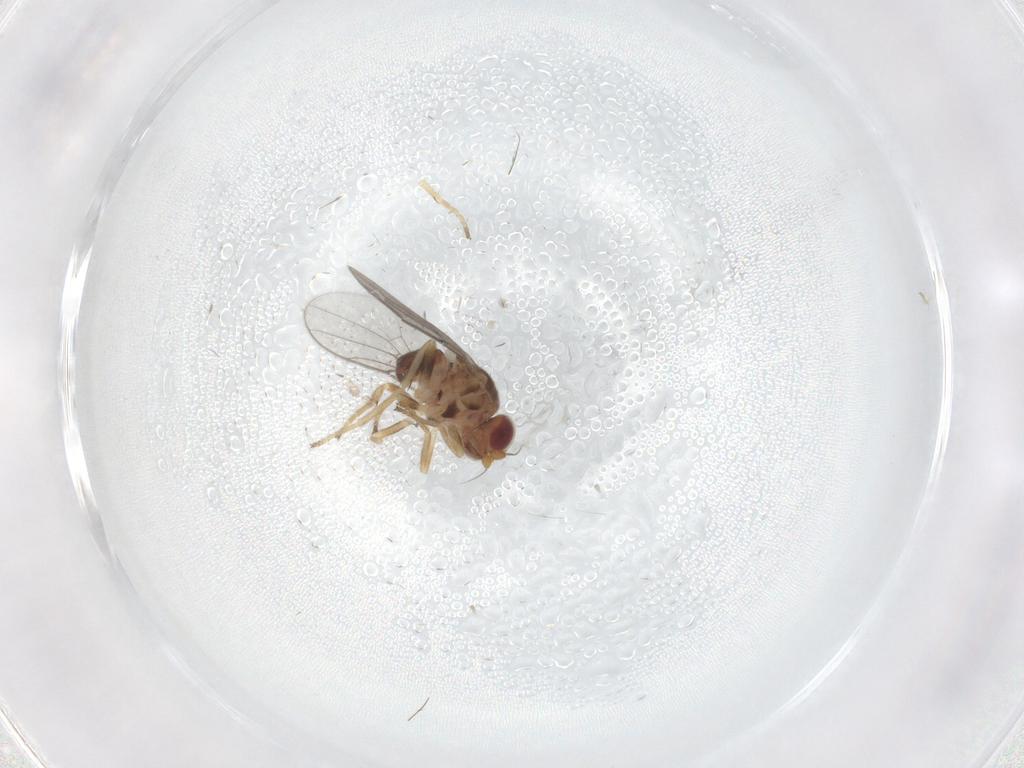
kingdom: Animalia
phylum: Arthropoda
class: Insecta
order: Diptera
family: Chloropidae
